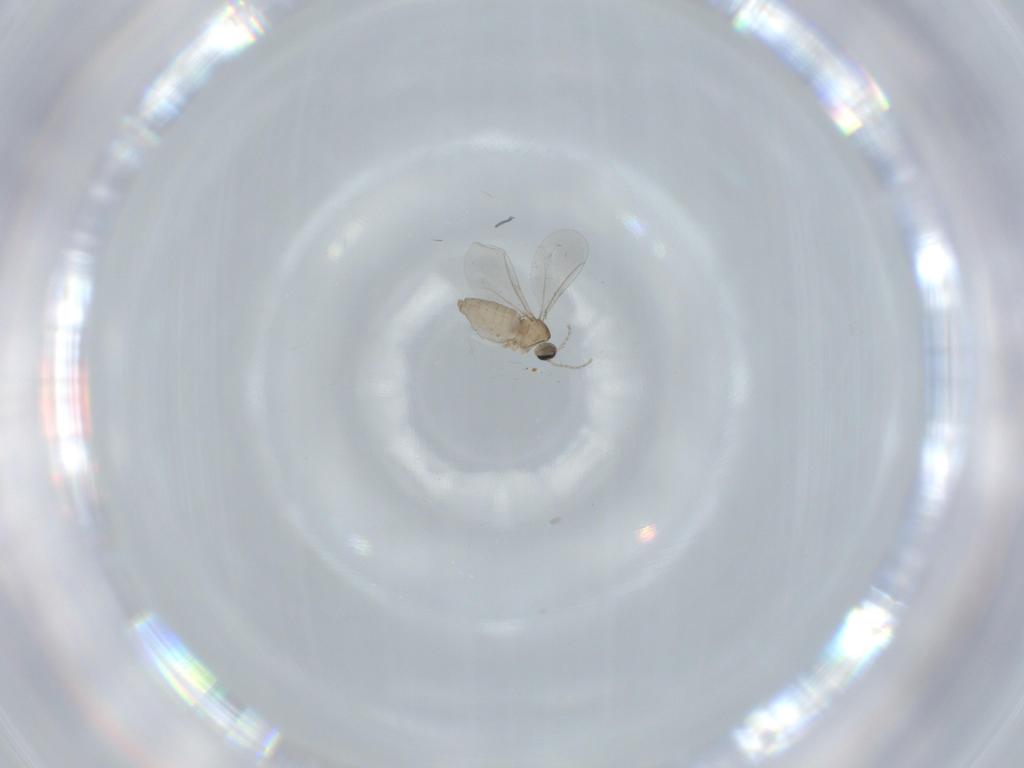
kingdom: Animalia
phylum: Arthropoda
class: Insecta
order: Diptera
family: Cecidomyiidae
